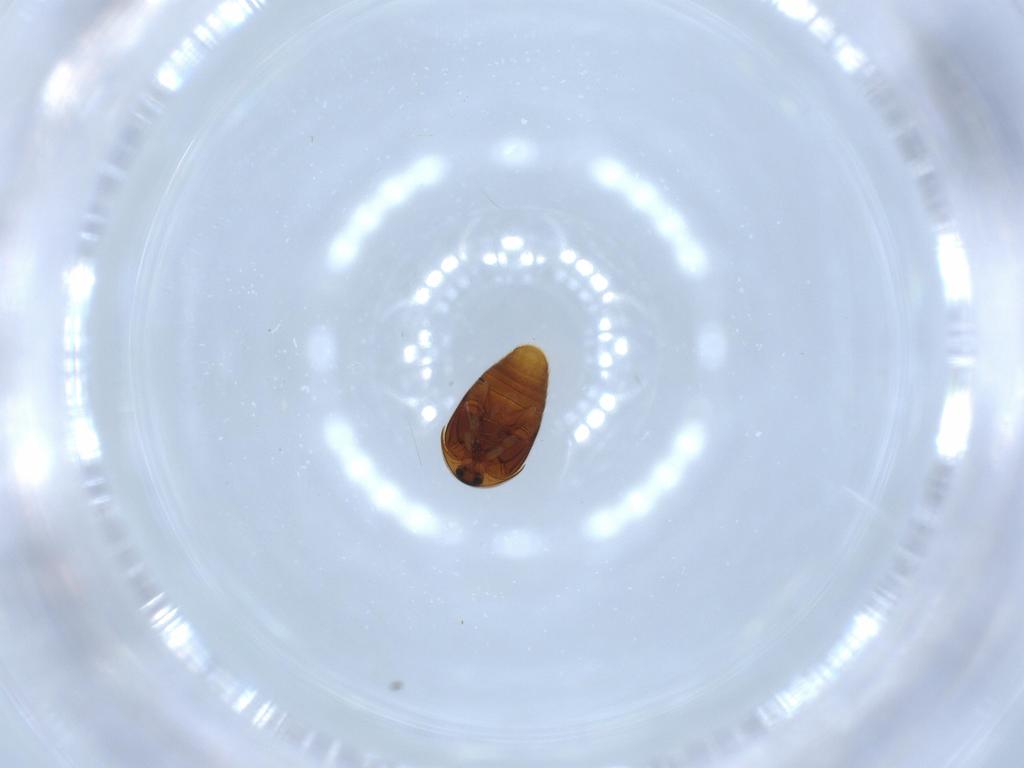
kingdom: Animalia
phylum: Arthropoda
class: Insecta
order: Coleoptera
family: Corylophidae
